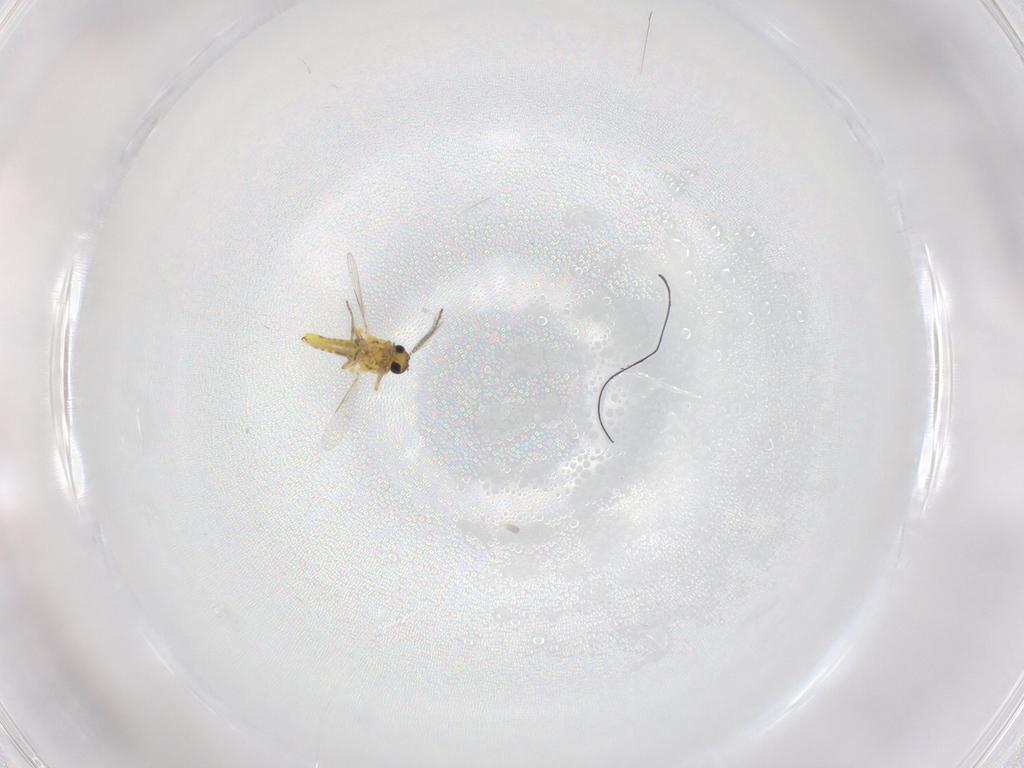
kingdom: Animalia
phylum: Arthropoda
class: Insecta
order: Diptera
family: Ceratopogonidae
